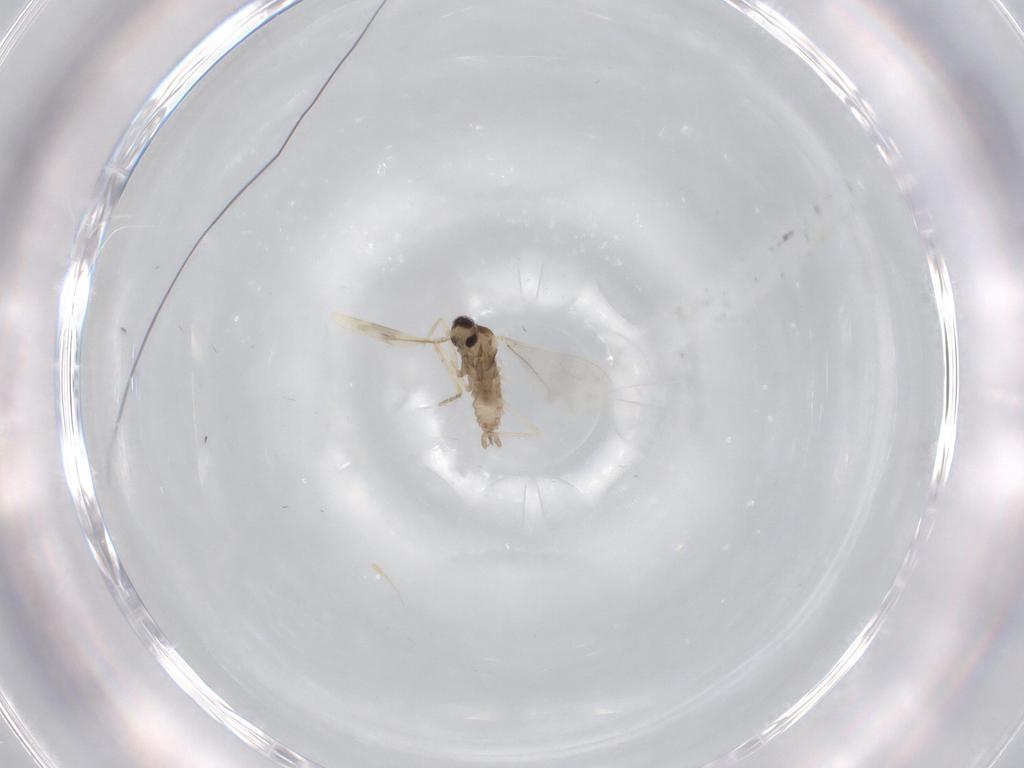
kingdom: Animalia
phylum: Arthropoda
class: Insecta
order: Diptera
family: Cecidomyiidae
